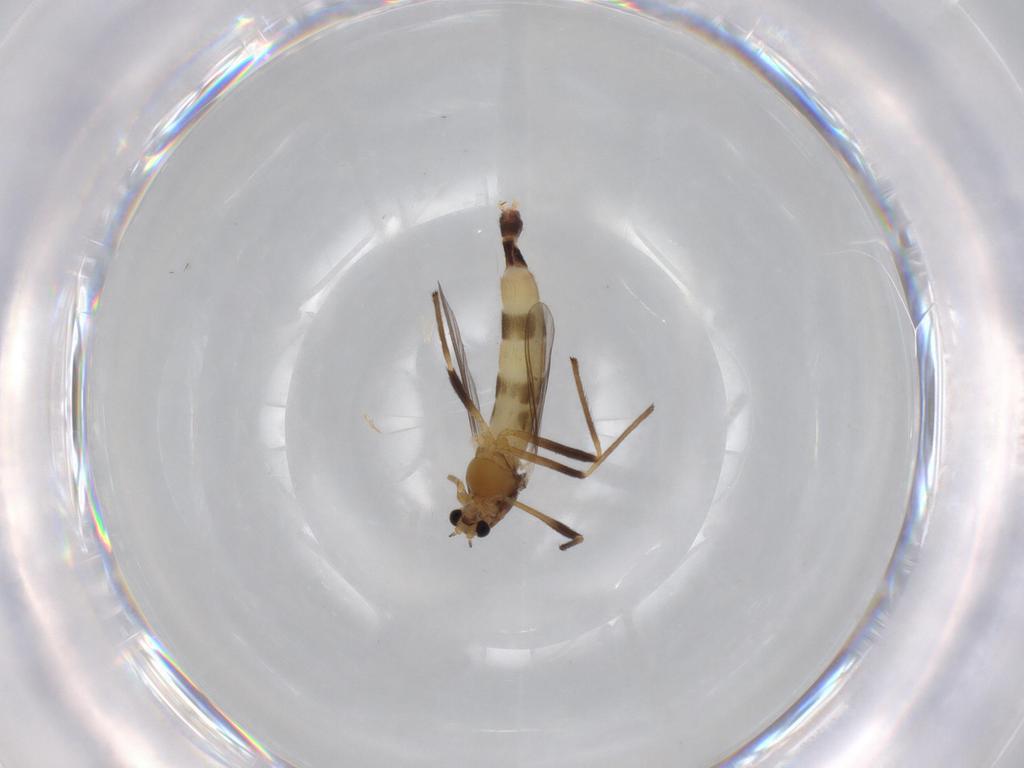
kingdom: Animalia
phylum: Arthropoda
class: Insecta
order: Diptera
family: Chironomidae
